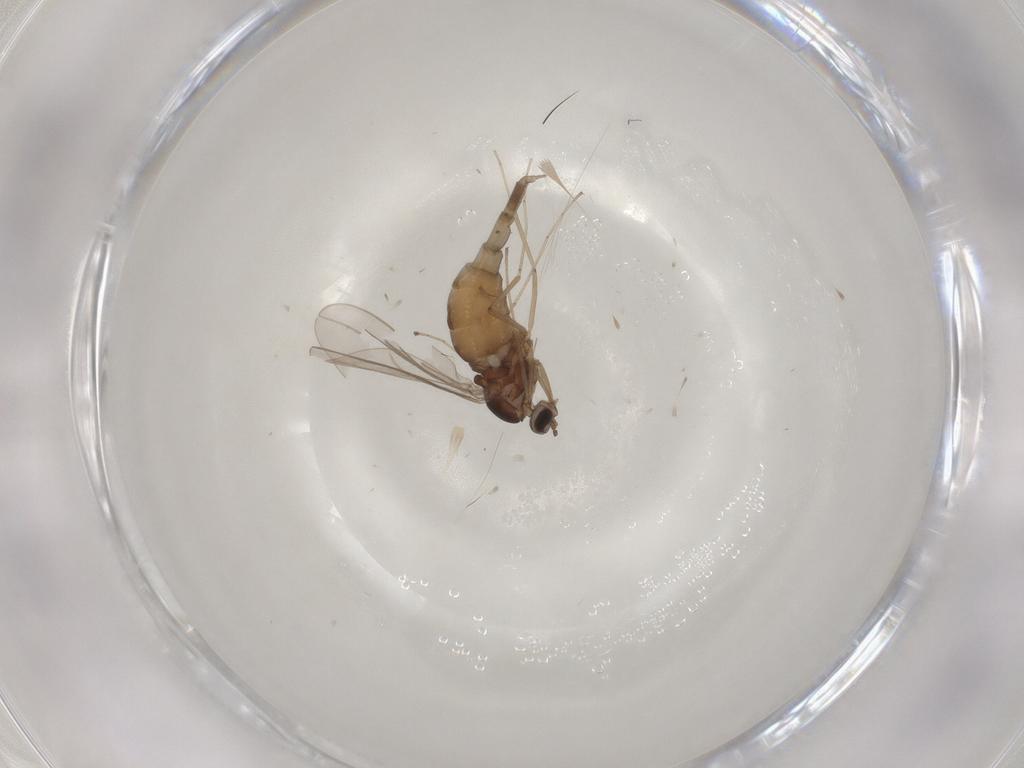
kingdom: Animalia
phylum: Arthropoda
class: Insecta
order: Diptera
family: Cecidomyiidae
